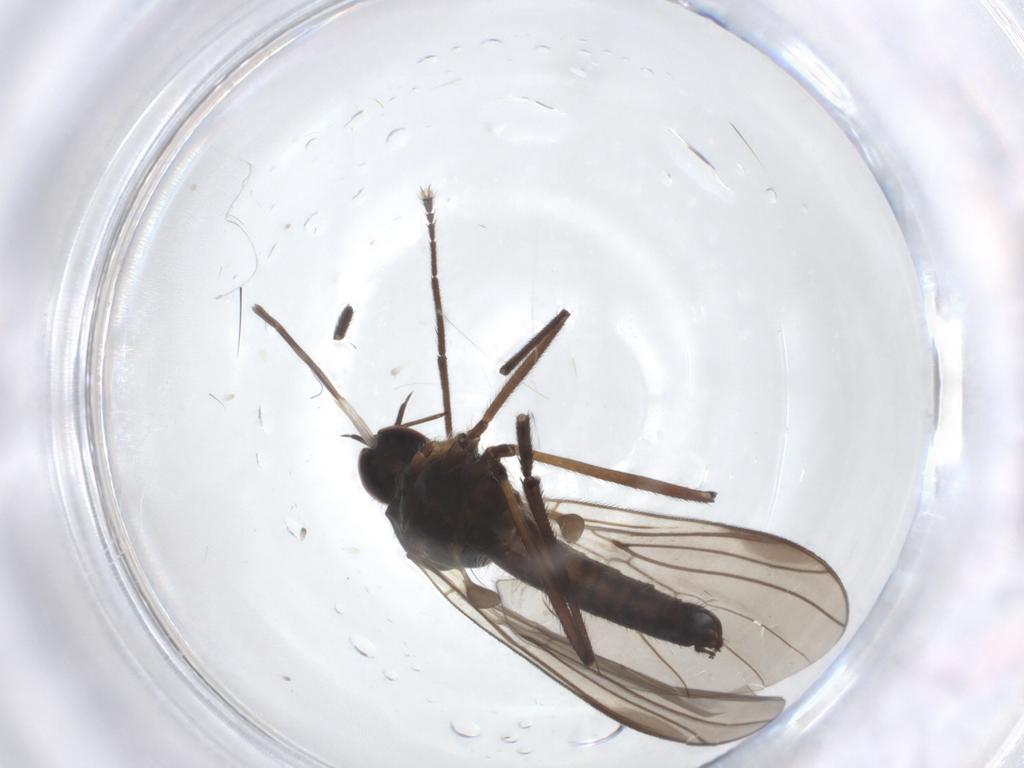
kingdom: Animalia
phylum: Arthropoda
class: Insecta
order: Diptera
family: Empididae
